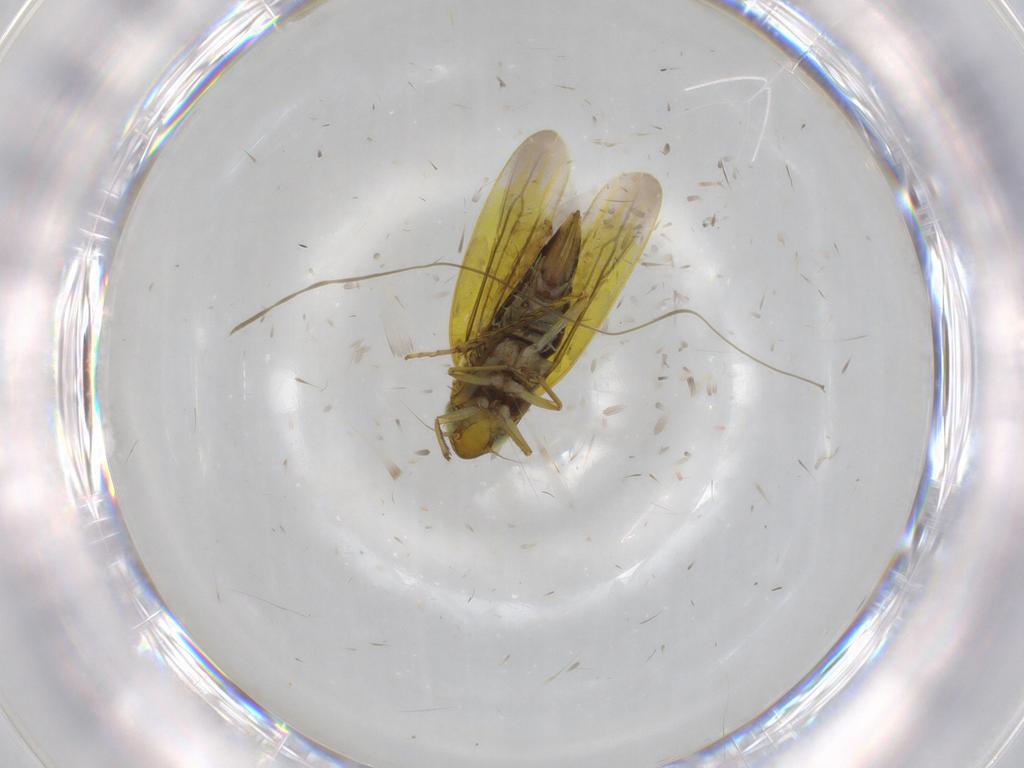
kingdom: Animalia
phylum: Arthropoda
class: Insecta
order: Hemiptera
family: Cicadellidae
